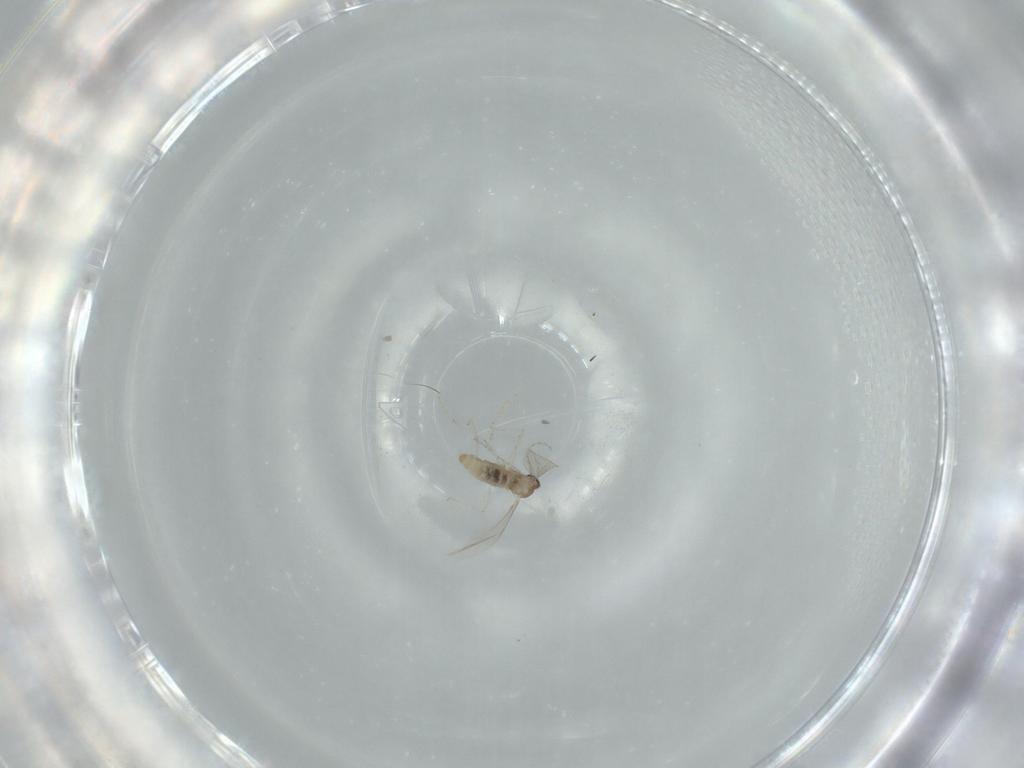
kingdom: Animalia
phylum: Arthropoda
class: Insecta
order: Diptera
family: Cecidomyiidae
